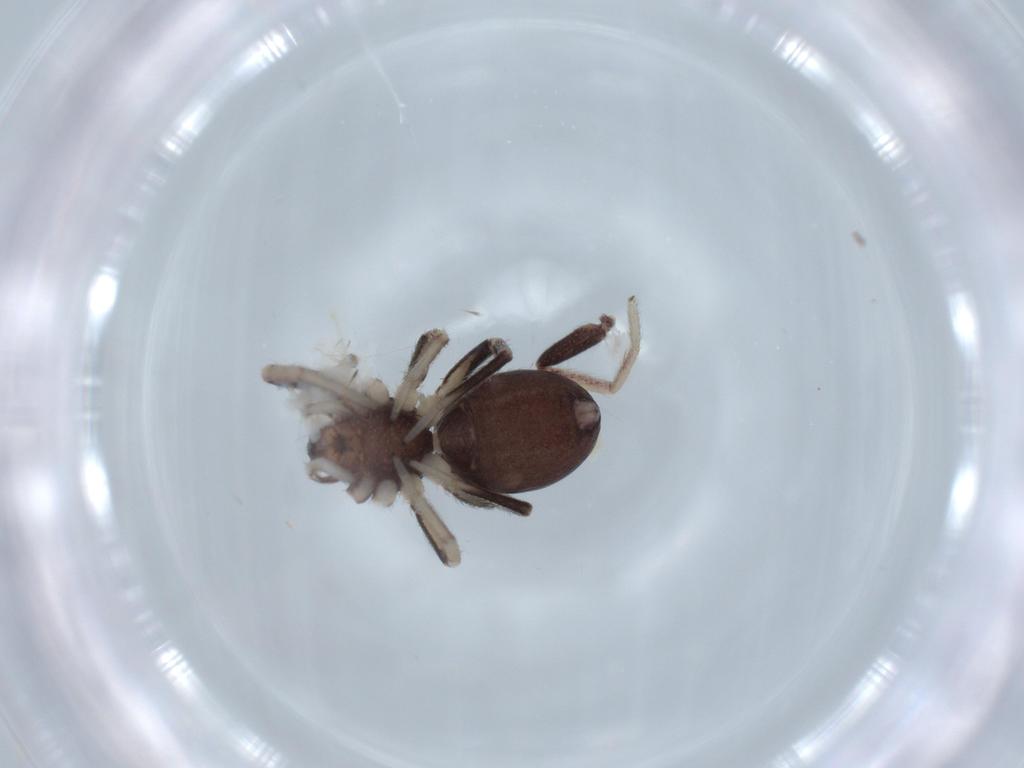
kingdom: Animalia
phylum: Arthropoda
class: Arachnida
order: Araneae
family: Corinnidae
